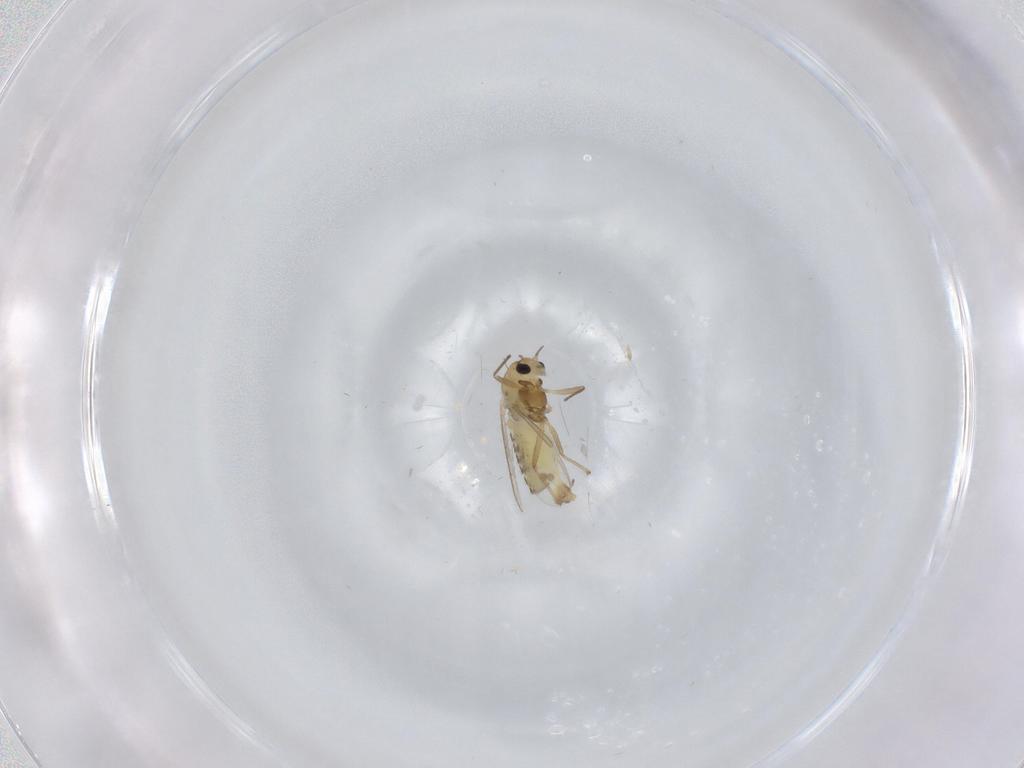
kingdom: Animalia
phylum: Arthropoda
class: Insecta
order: Diptera
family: Chironomidae
